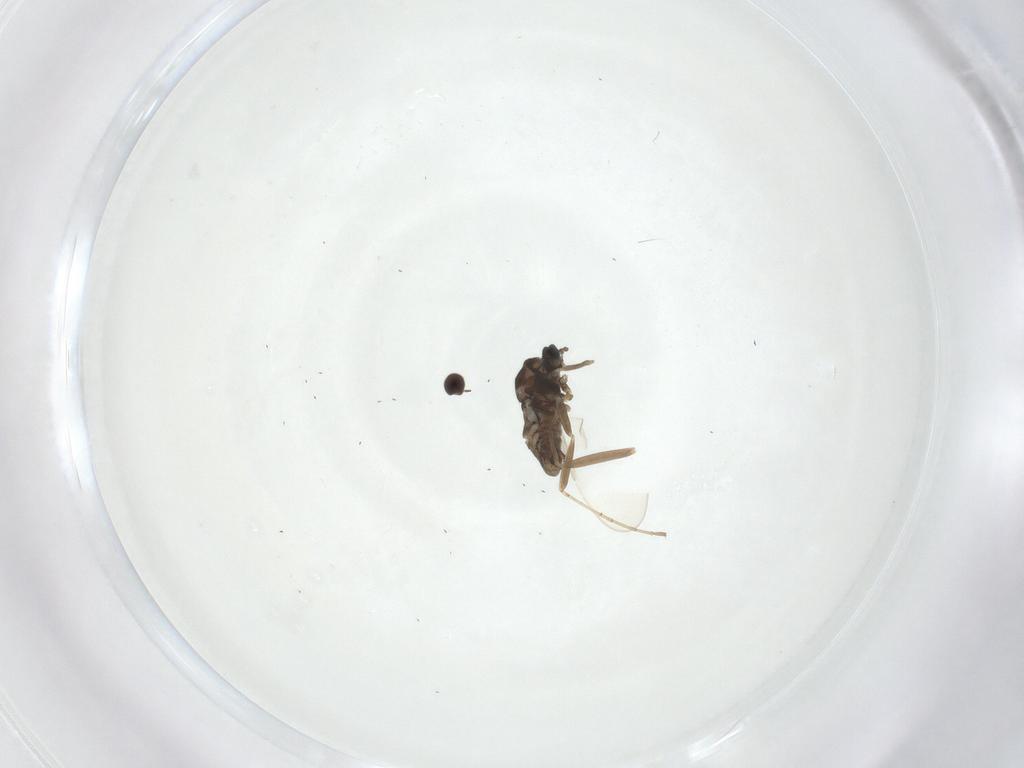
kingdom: Animalia
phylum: Arthropoda
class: Insecta
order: Diptera
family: Cecidomyiidae
